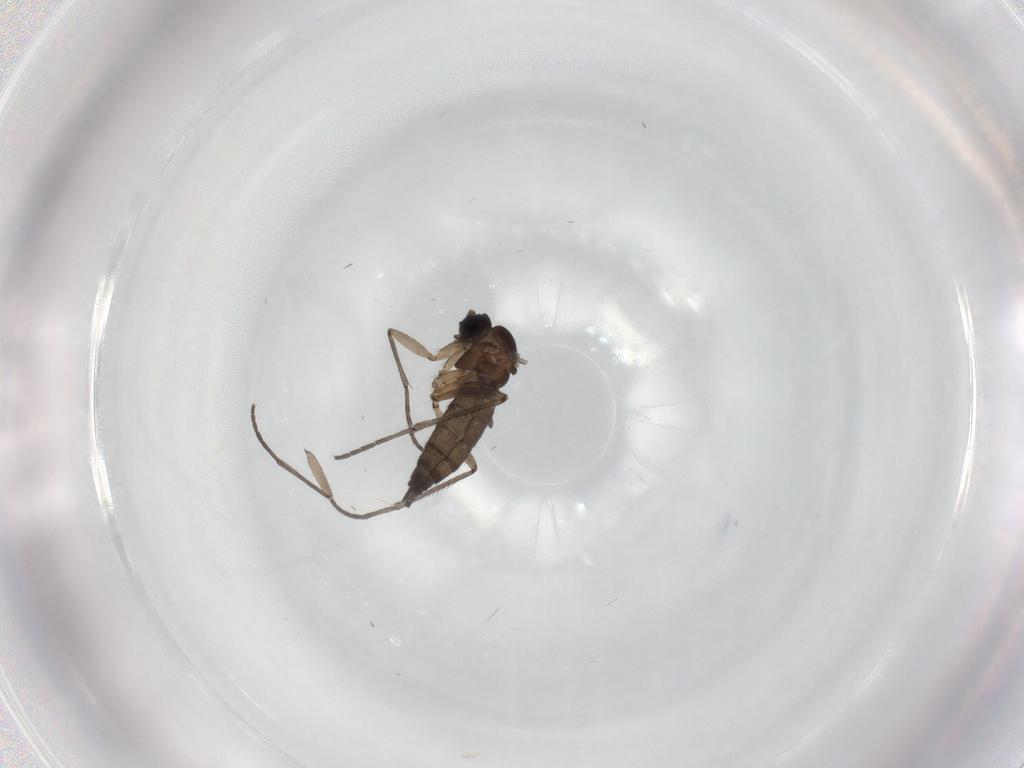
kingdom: Animalia
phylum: Arthropoda
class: Insecta
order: Diptera
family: Sciaridae
